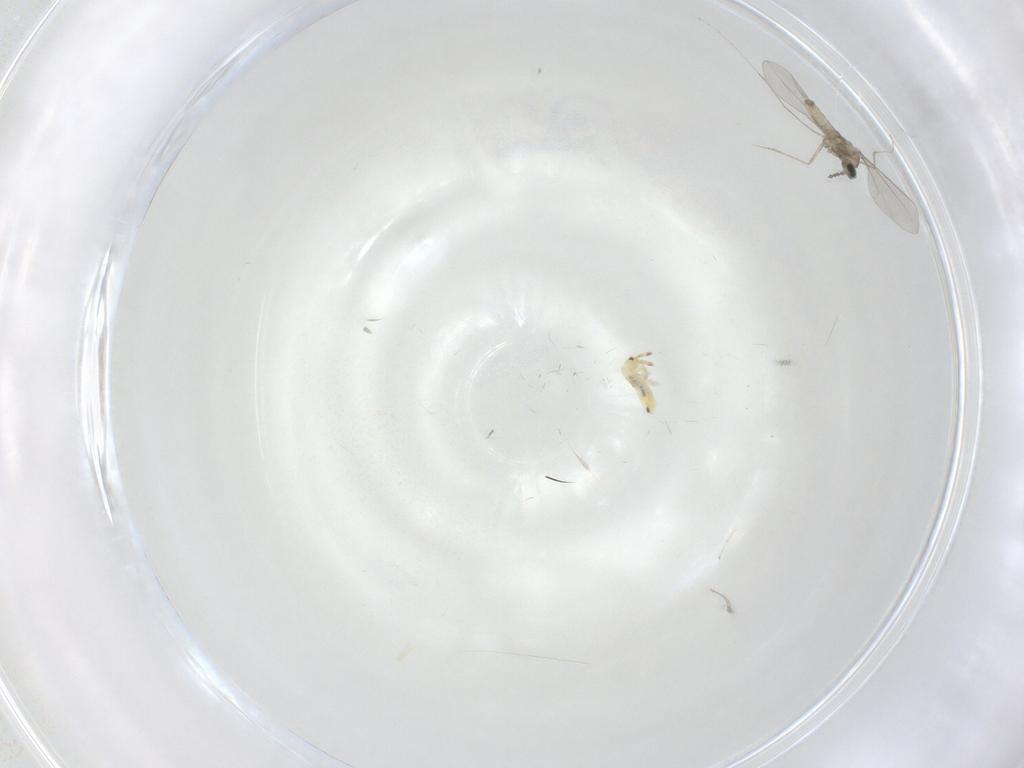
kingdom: Animalia
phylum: Arthropoda
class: Insecta
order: Diptera
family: Cecidomyiidae
